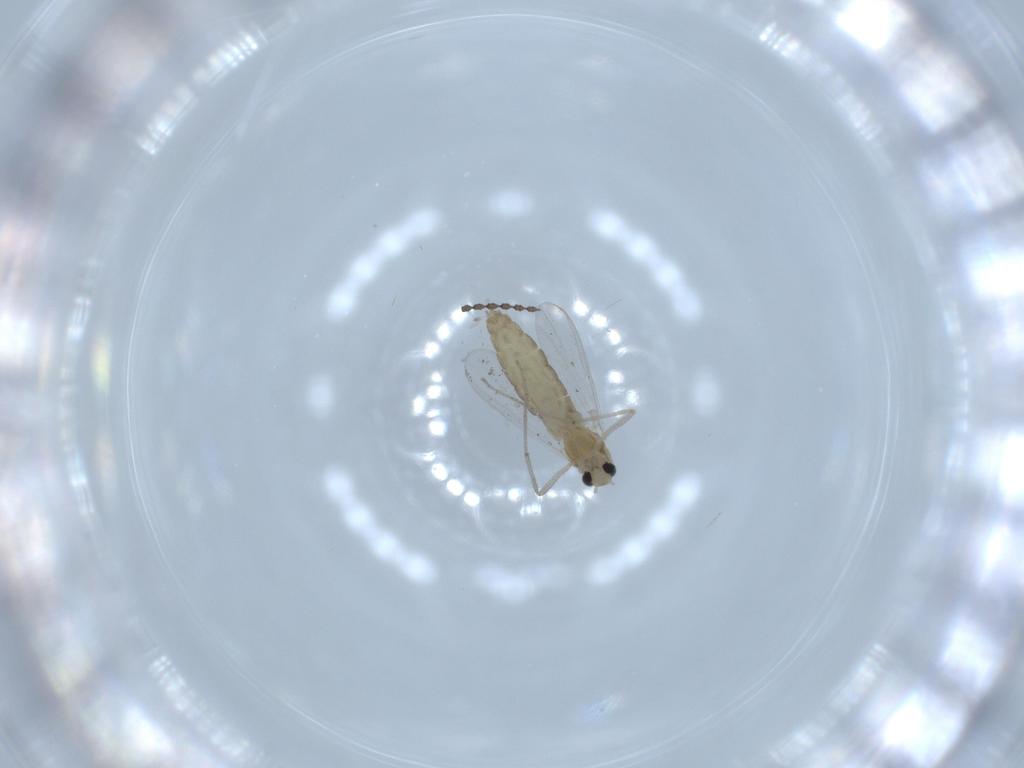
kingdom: Animalia
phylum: Arthropoda
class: Insecta
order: Diptera
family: Chironomidae
